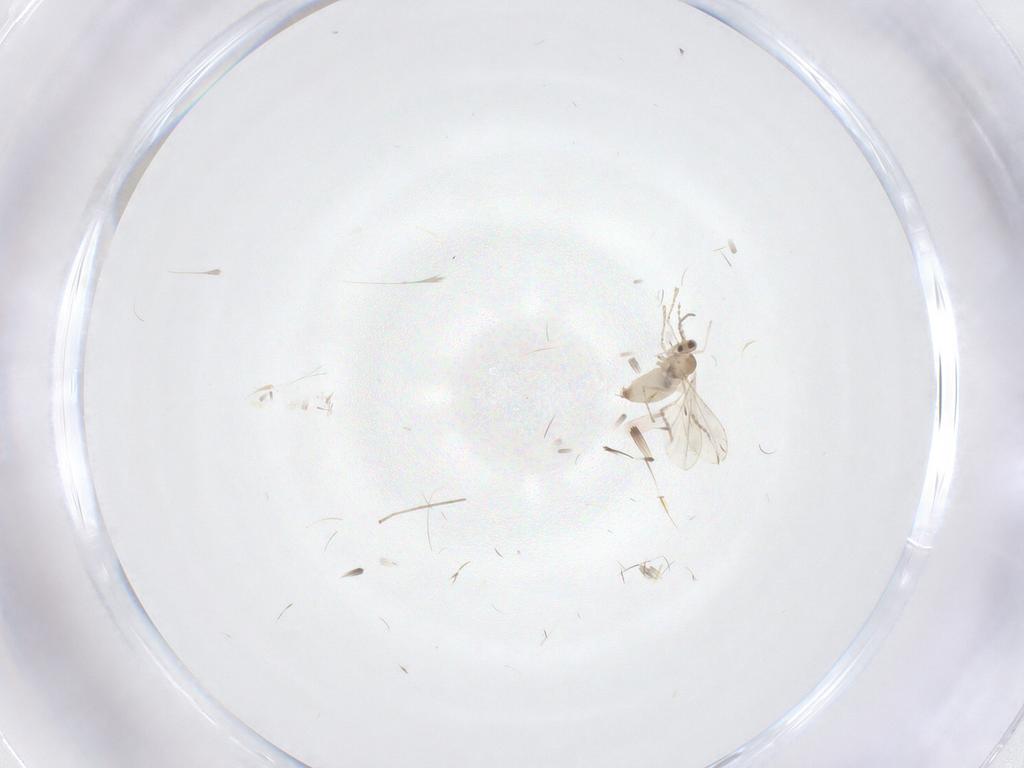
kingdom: Animalia
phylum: Arthropoda
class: Insecta
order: Diptera
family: Cecidomyiidae
